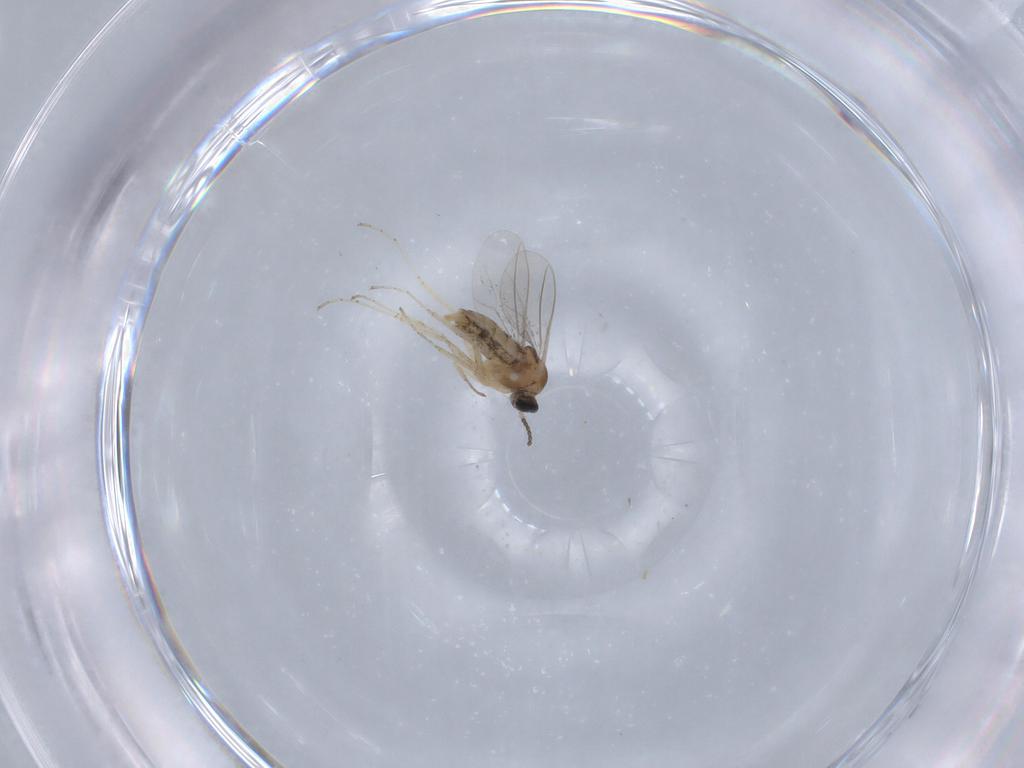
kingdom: Animalia
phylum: Arthropoda
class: Insecta
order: Diptera
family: Cecidomyiidae
